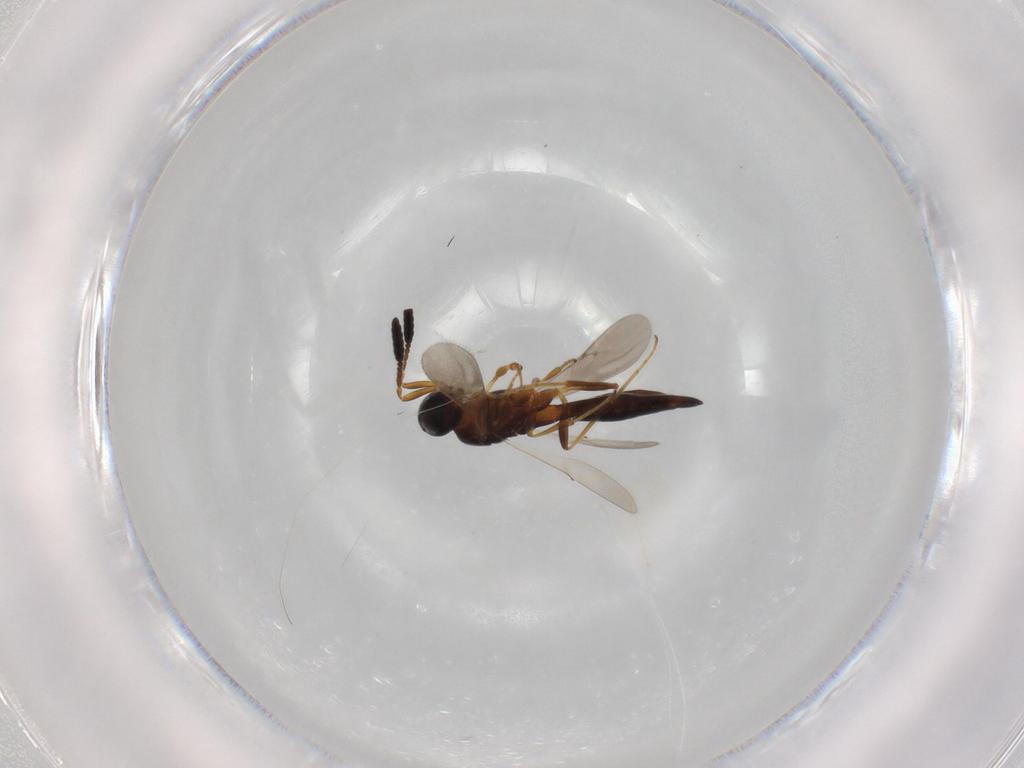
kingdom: Animalia
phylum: Arthropoda
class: Insecta
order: Hymenoptera
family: Scelionidae
